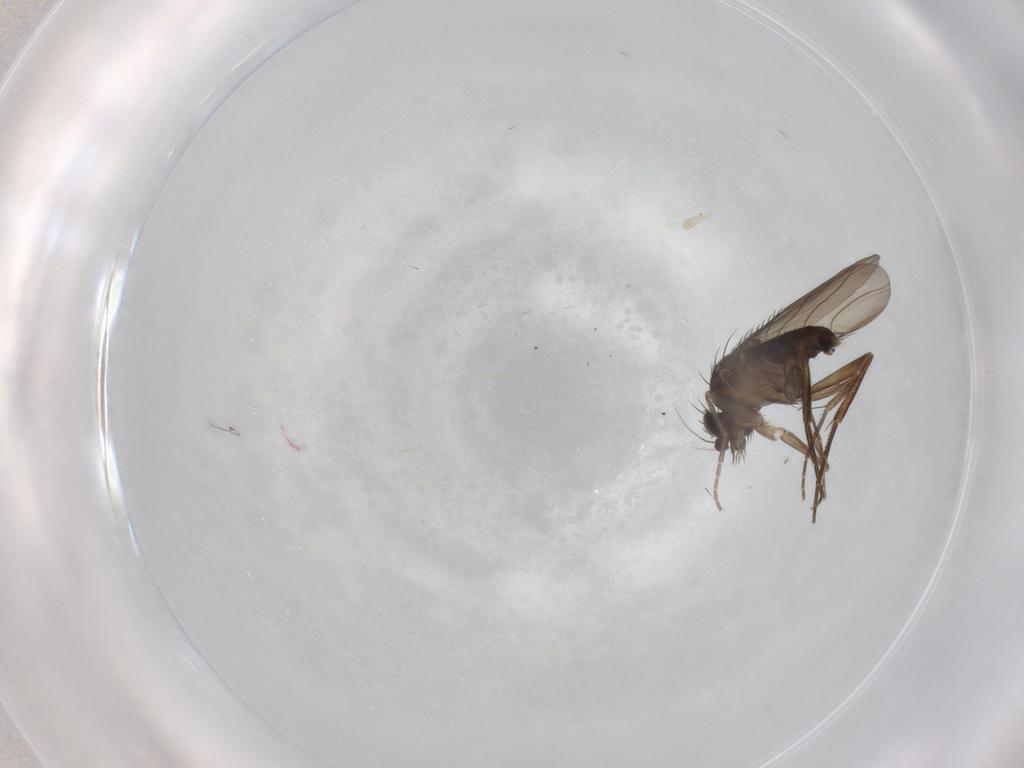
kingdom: Animalia
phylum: Arthropoda
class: Insecta
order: Diptera
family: Phoridae
